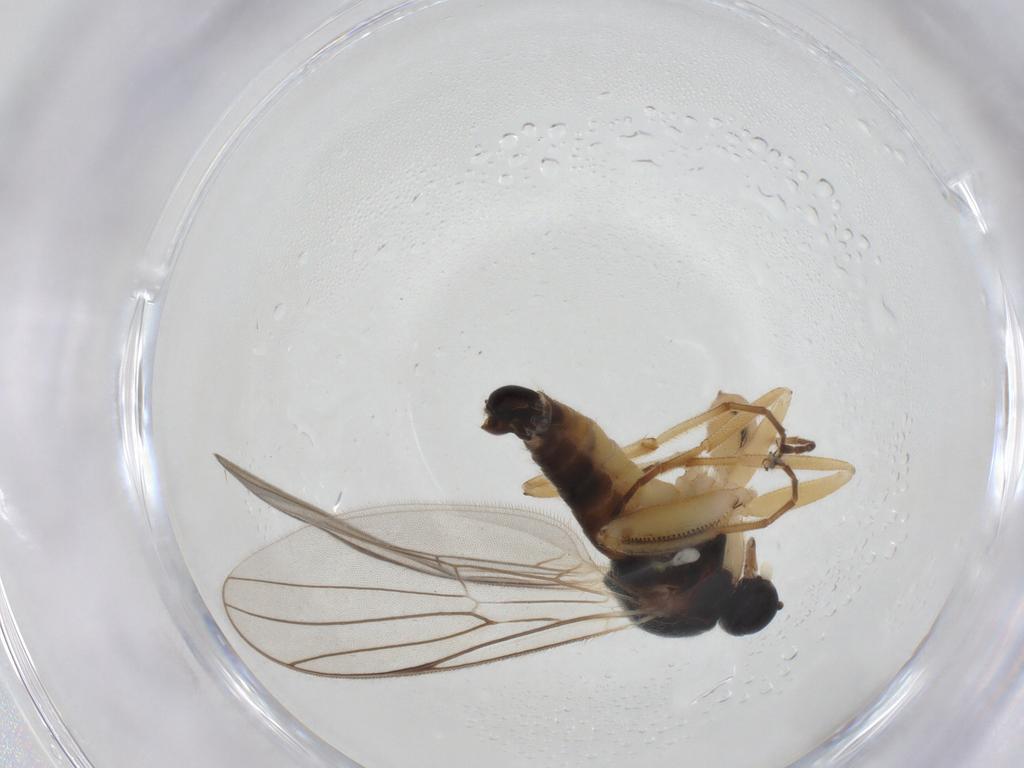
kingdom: Animalia
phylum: Arthropoda
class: Insecta
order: Diptera
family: Hybotidae
